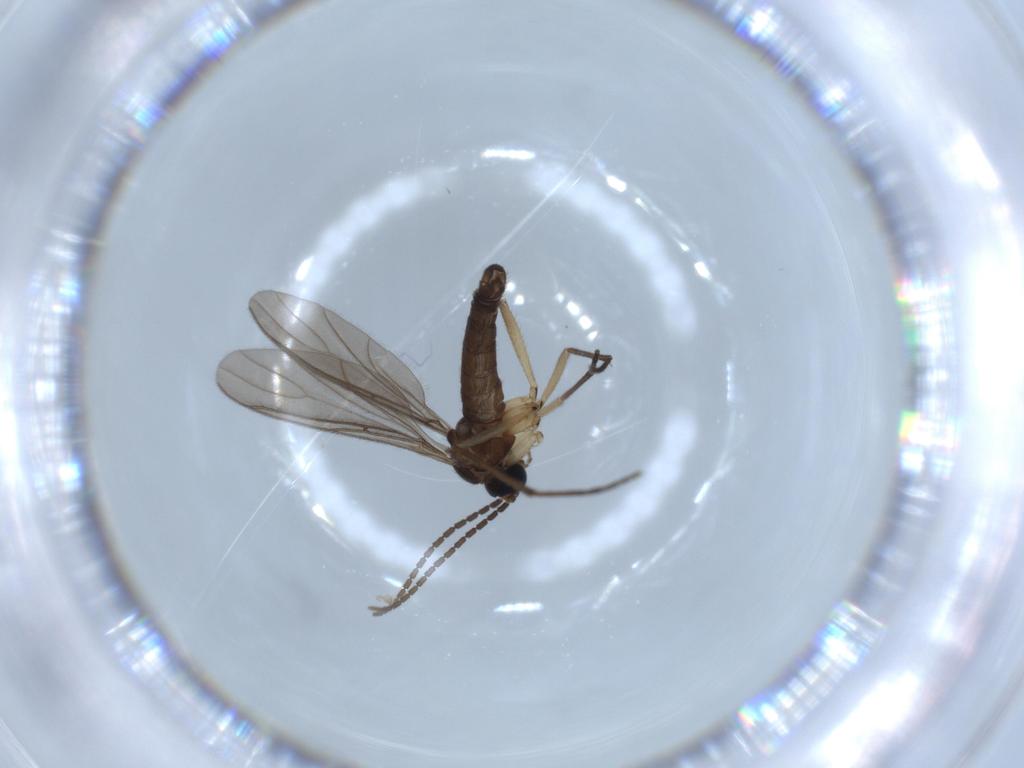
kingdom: Animalia
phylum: Arthropoda
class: Insecta
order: Diptera
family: Sciaridae
